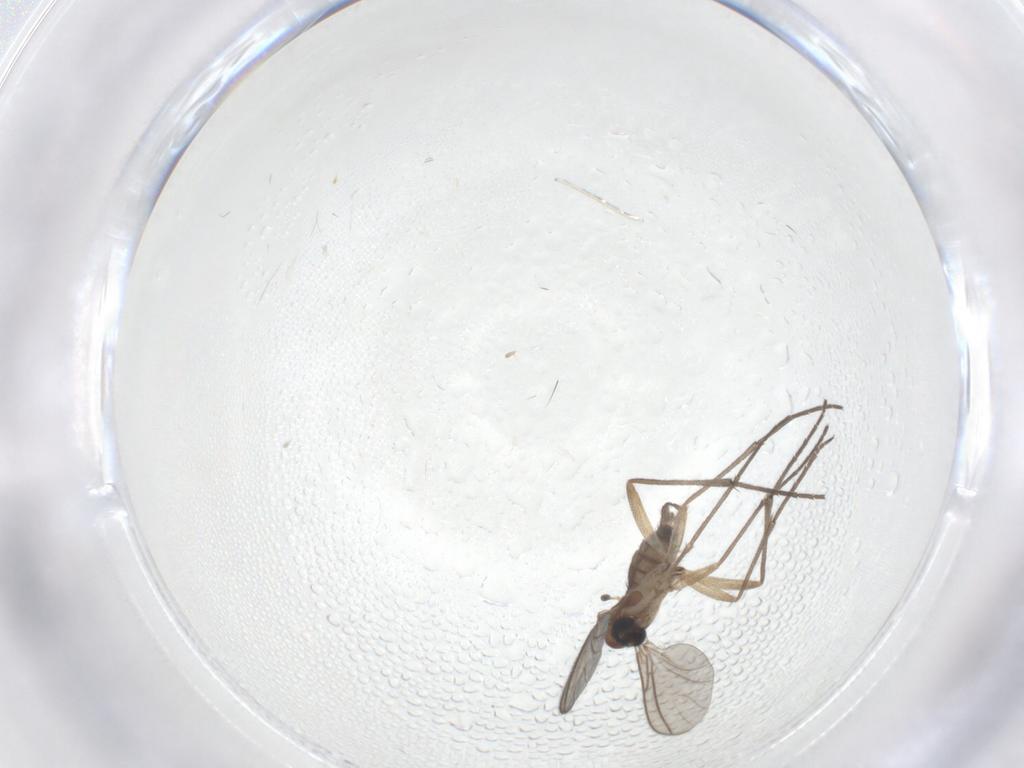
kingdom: Animalia
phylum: Arthropoda
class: Insecta
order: Diptera
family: Sciaridae
